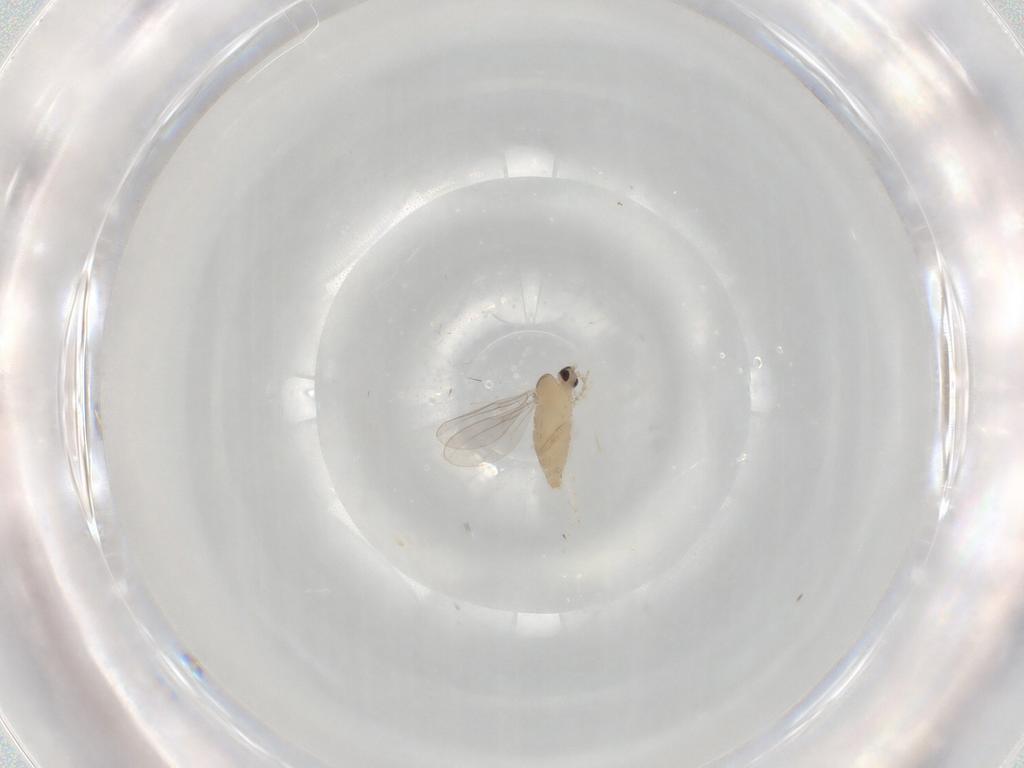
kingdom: Animalia
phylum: Arthropoda
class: Insecta
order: Diptera
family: Cecidomyiidae
